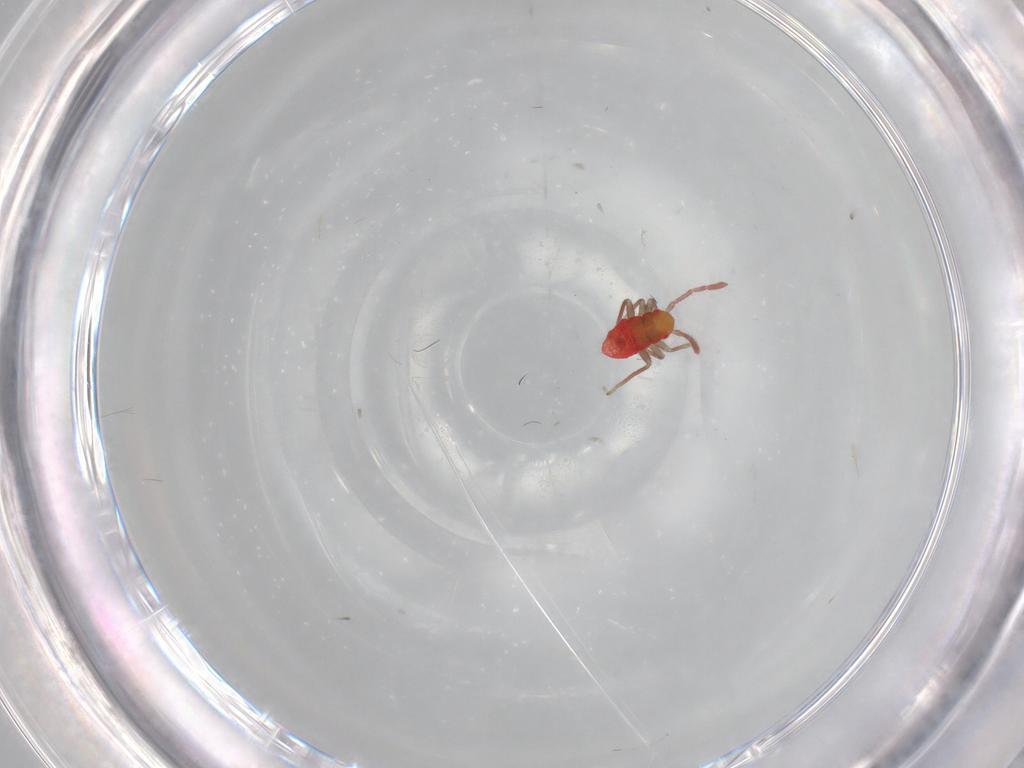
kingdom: Animalia
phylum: Arthropoda
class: Insecta
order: Hemiptera
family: Miridae
